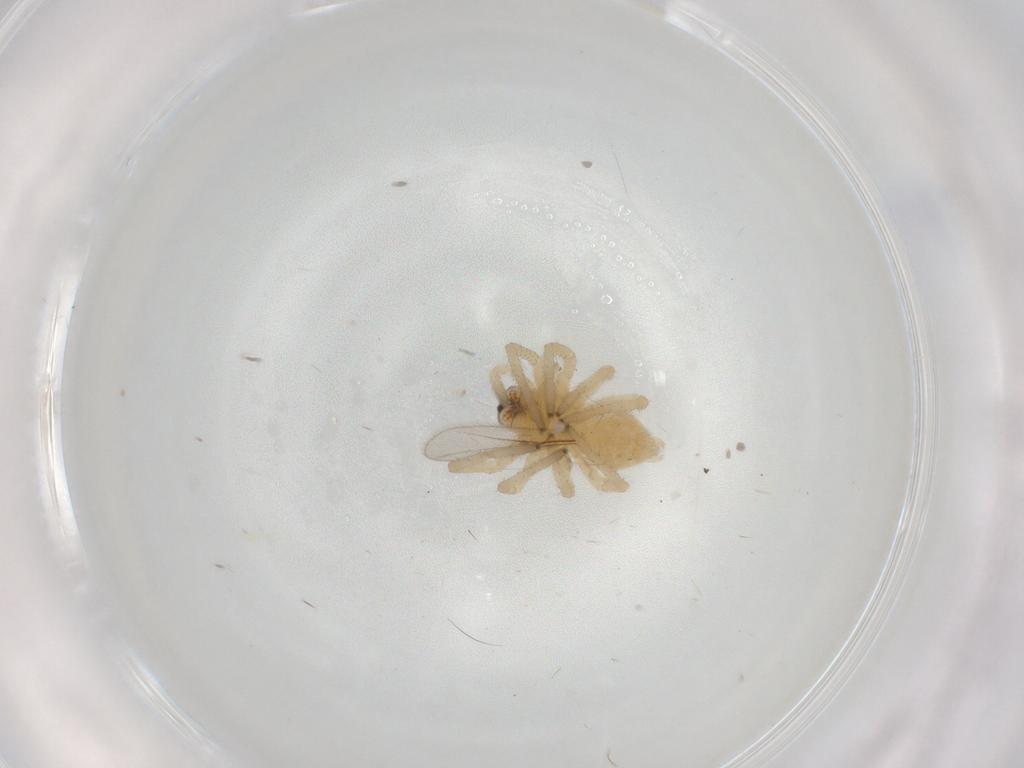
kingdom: Animalia
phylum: Arthropoda
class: Arachnida
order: Araneae
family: Cheiracanthiidae
